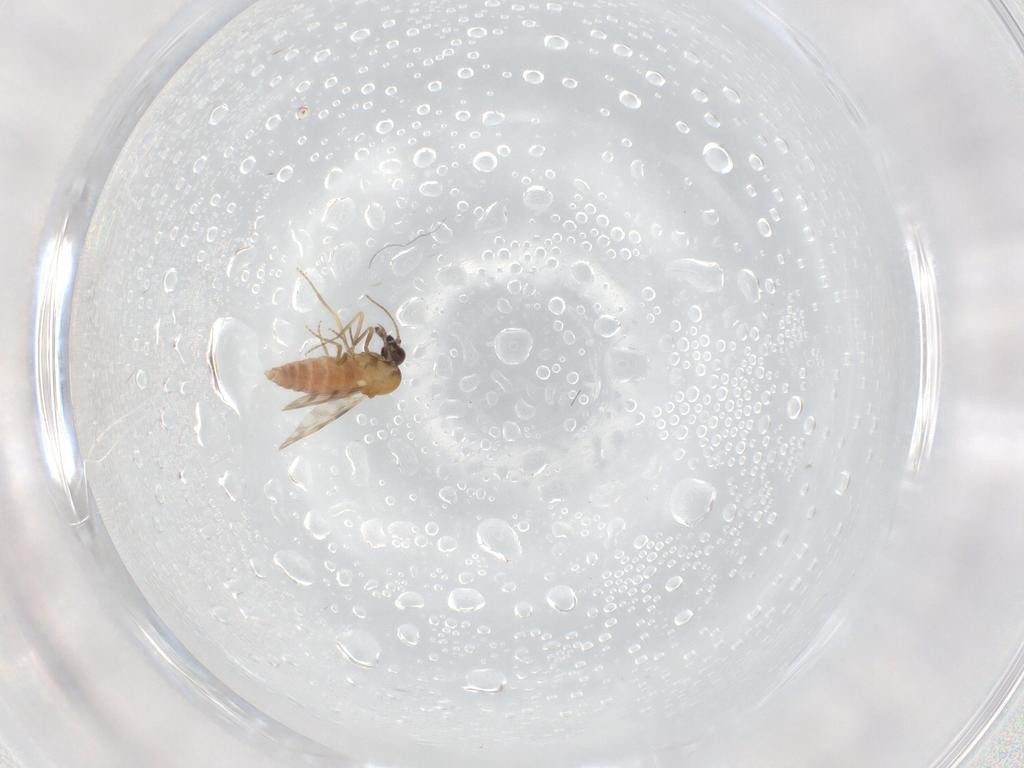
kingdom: Animalia
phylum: Arthropoda
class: Insecta
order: Diptera
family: Ceratopogonidae
